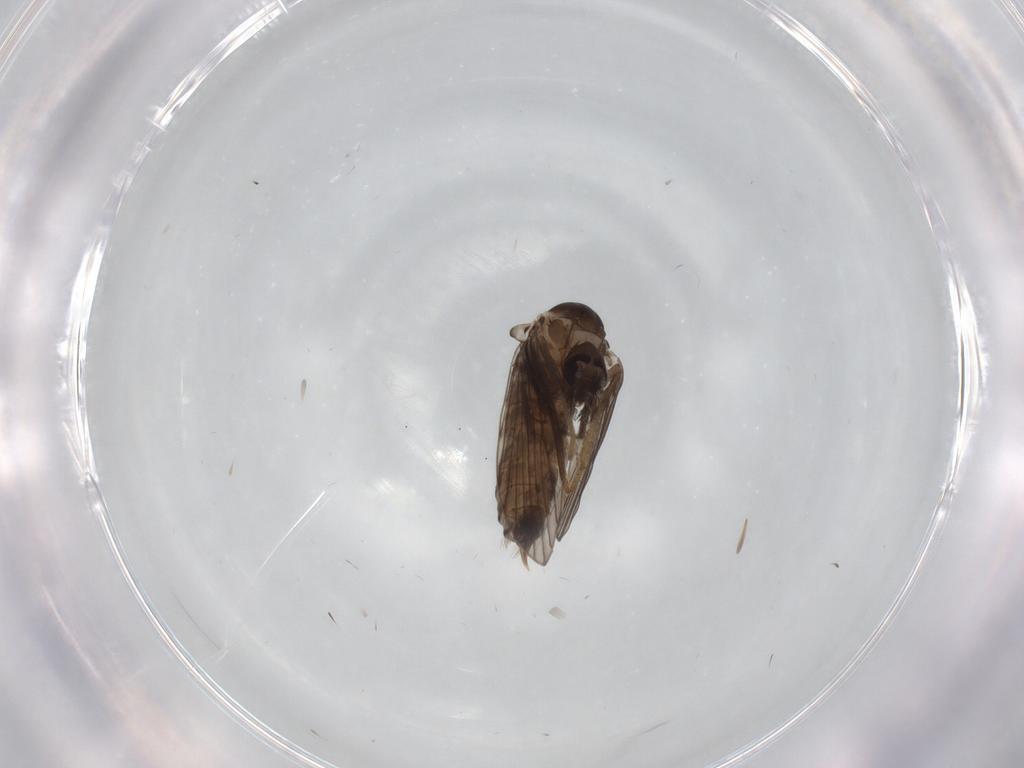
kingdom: Animalia
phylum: Arthropoda
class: Insecta
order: Diptera
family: Psychodidae
